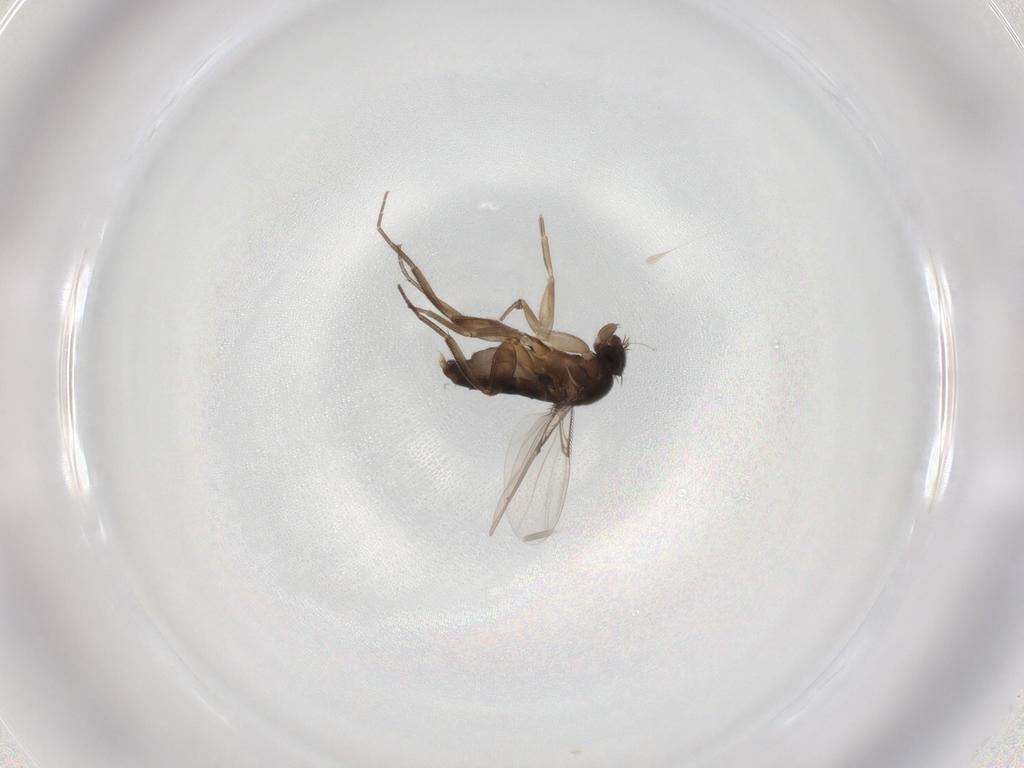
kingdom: Animalia
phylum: Arthropoda
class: Insecta
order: Diptera
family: Phoridae
